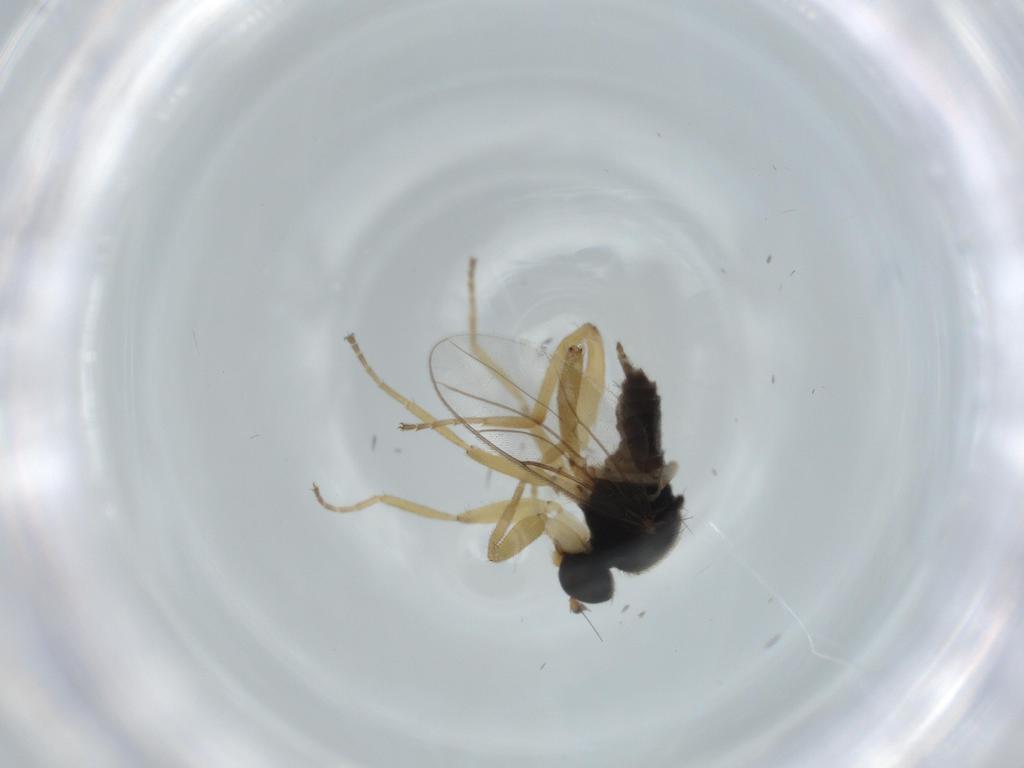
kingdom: Animalia
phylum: Arthropoda
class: Insecta
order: Diptera
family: Hybotidae
